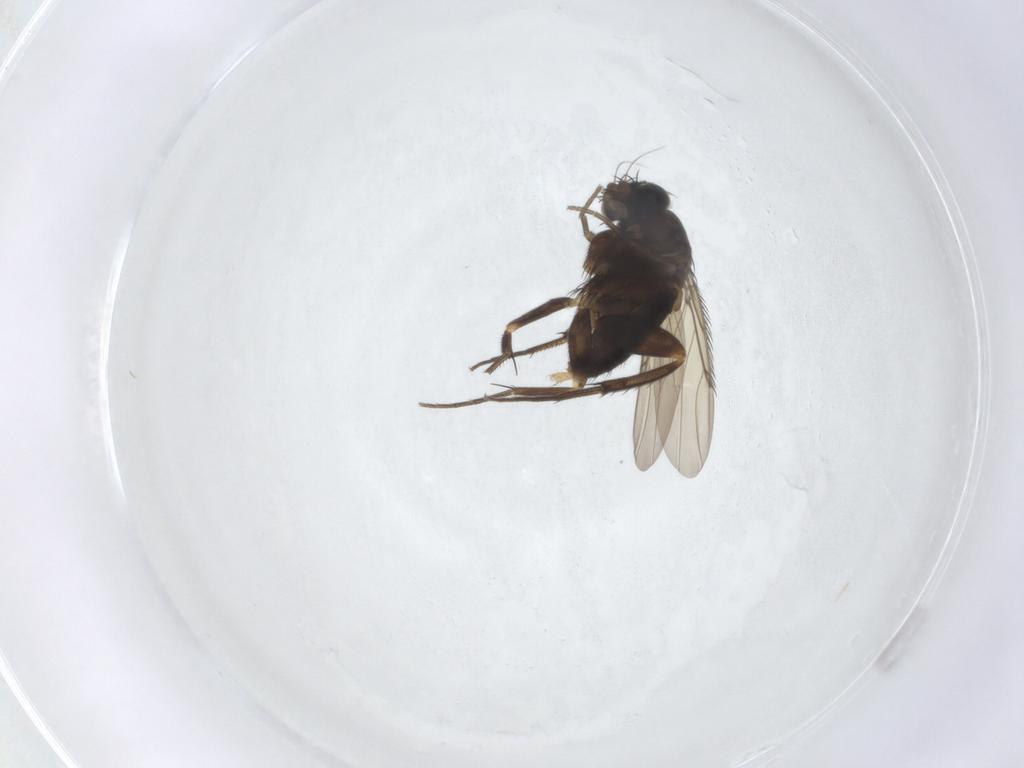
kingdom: Animalia
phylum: Arthropoda
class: Insecta
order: Diptera
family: Phoridae
